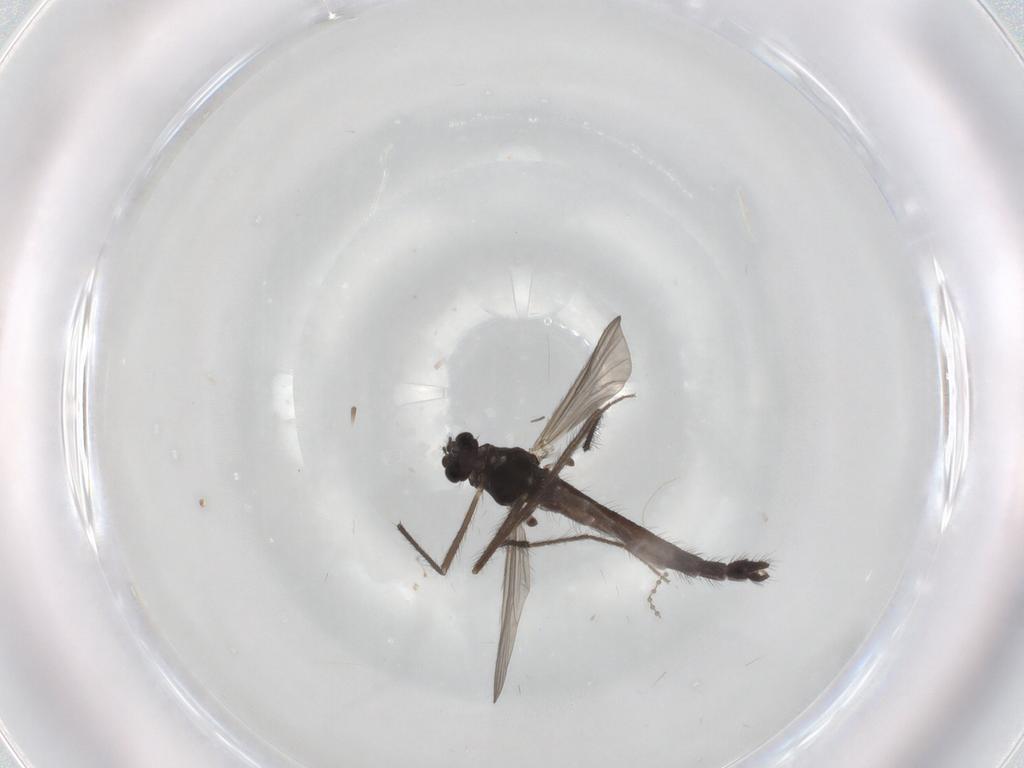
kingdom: Animalia
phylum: Arthropoda
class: Insecta
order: Diptera
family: Chironomidae
